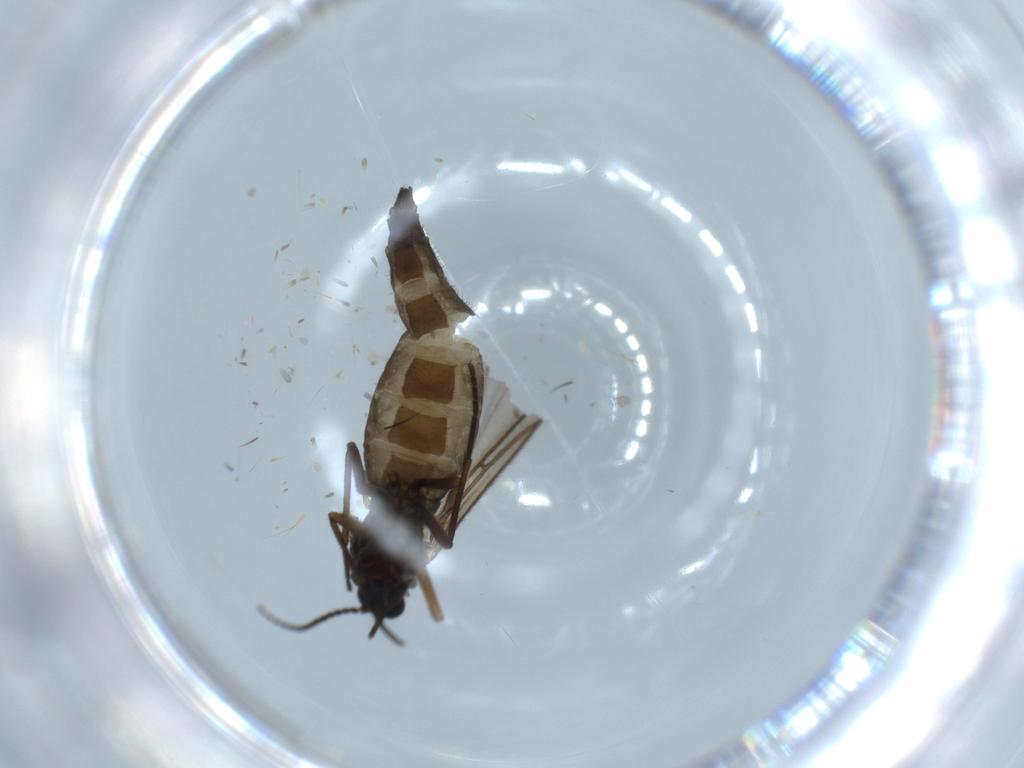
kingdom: Animalia
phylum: Arthropoda
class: Insecta
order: Diptera
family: Sciaridae
